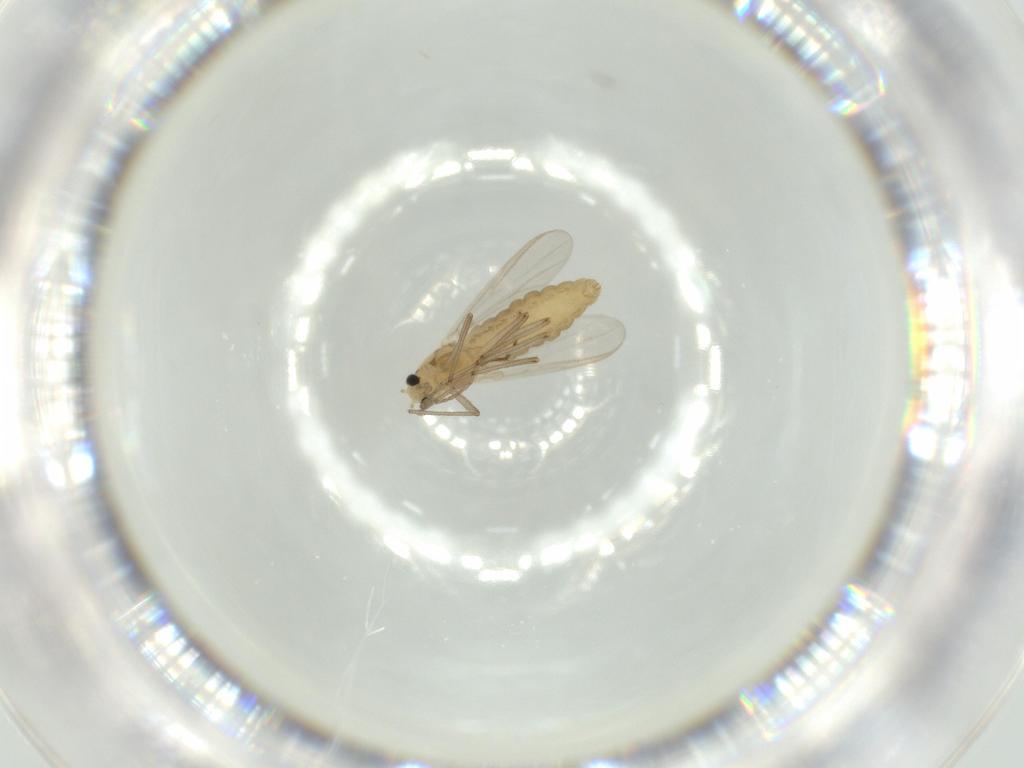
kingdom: Animalia
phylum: Arthropoda
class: Insecta
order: Diptera
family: Chironomidae
